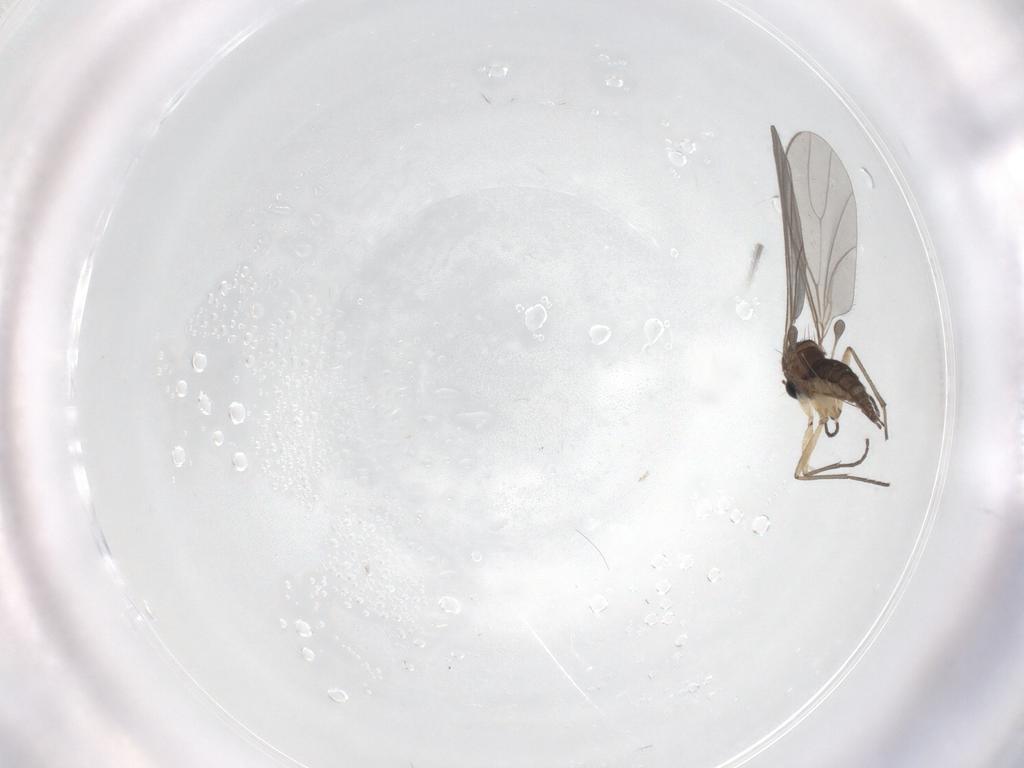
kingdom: Animalia
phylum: Arthropoda
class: Insecta
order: Diptera
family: Sciaridae
